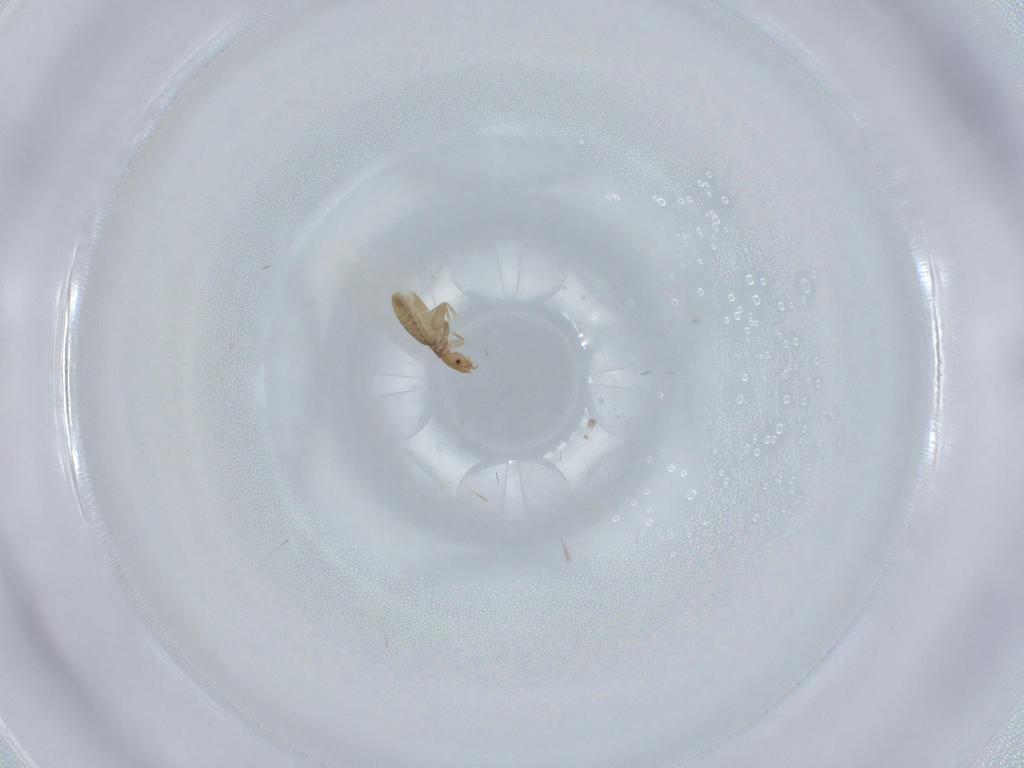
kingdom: Animalia
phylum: Arthropoda
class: Insecta
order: Psocodea
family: Liposcelididae
